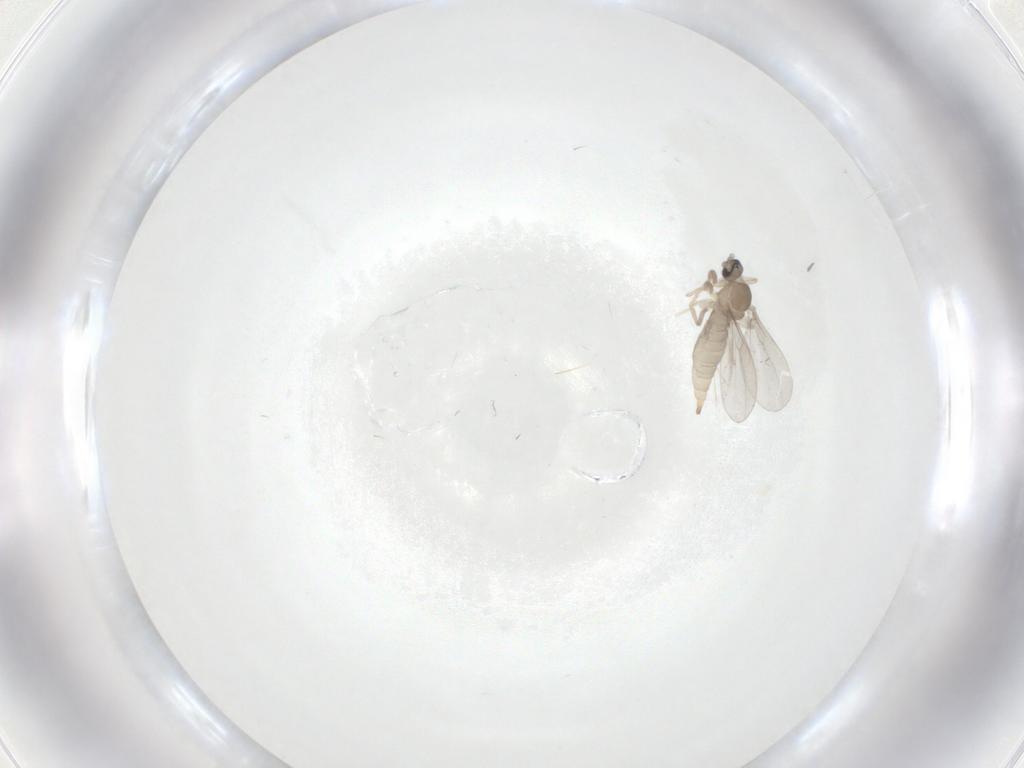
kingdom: Animalia
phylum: Arthropoda
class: Insecta
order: Diptera
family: Cecidomyiidae
